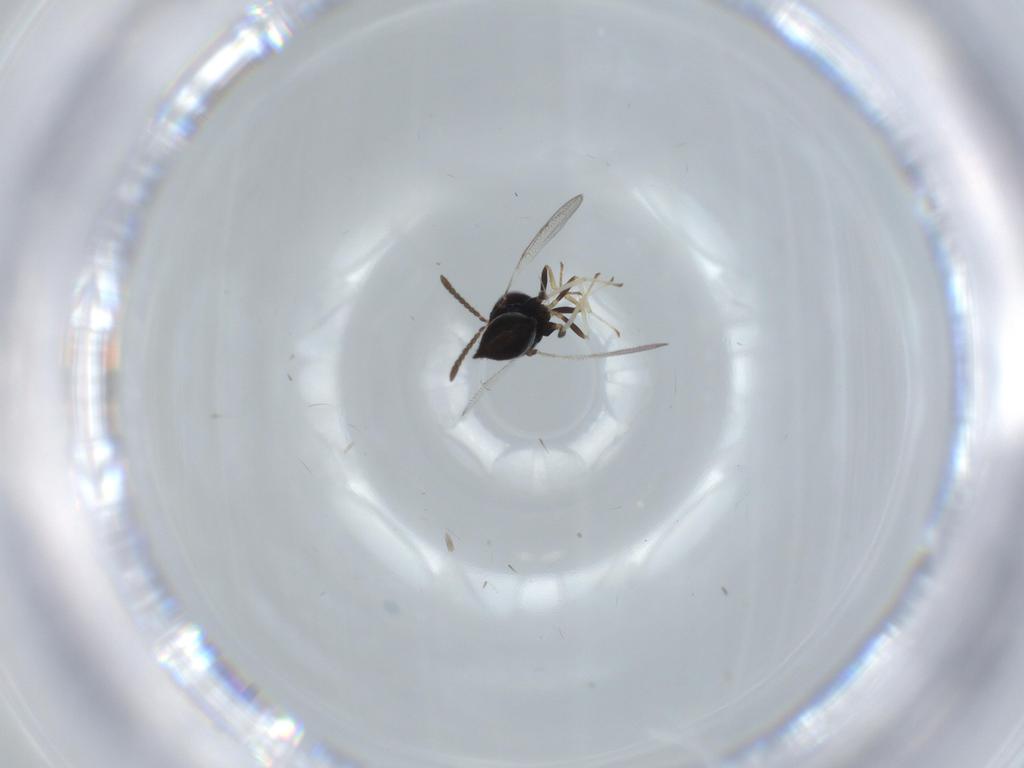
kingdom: Animalia
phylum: Arthropoda
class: Insecta
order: Hymenoptera
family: Pteromalidae
